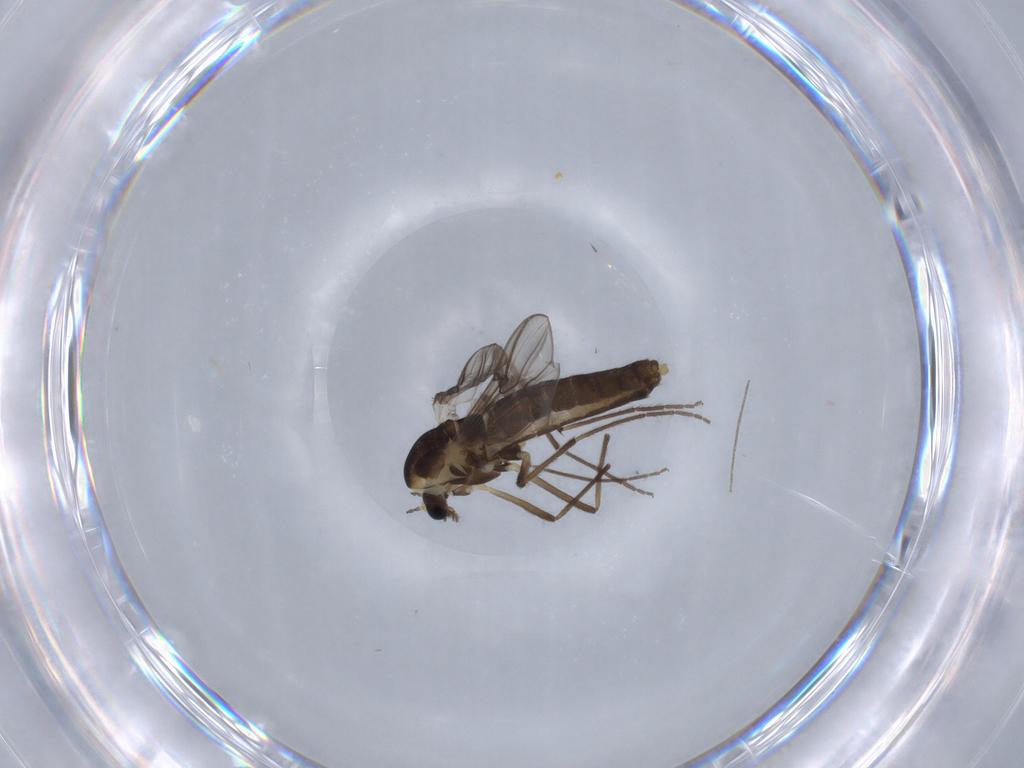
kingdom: Animalia
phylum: Arthropoda
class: Insecta
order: Diptera
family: Chironomidae
